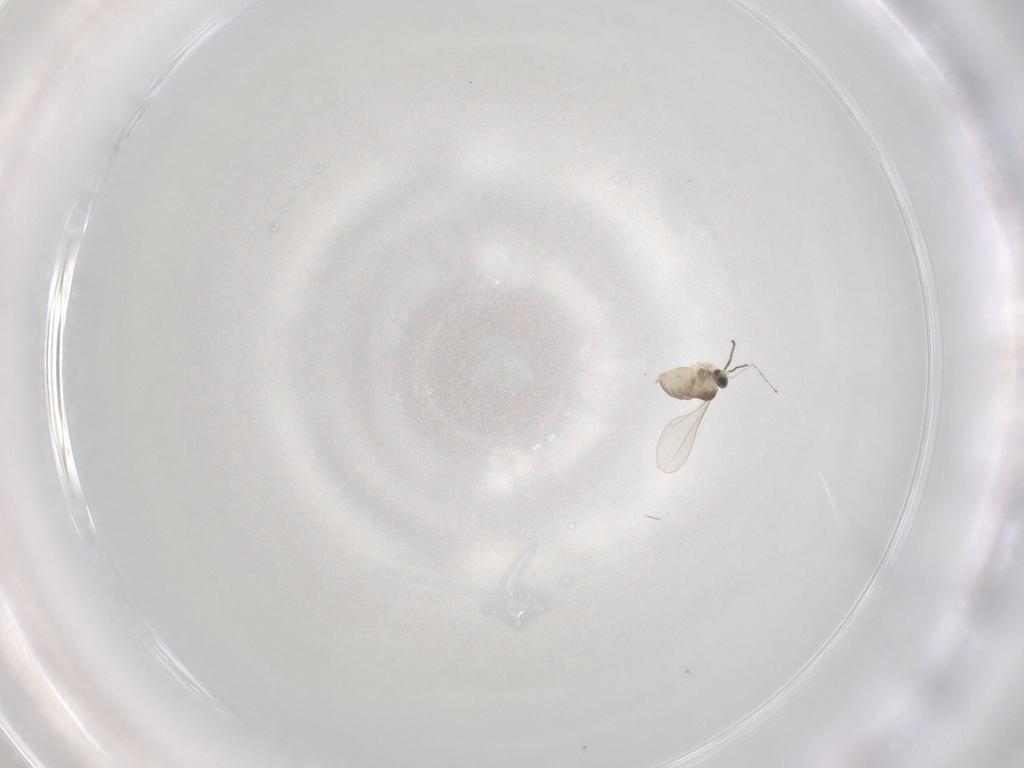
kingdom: Animalia
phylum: Arthropoda
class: Insecta
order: Diptera
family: Cecidomyiidae
